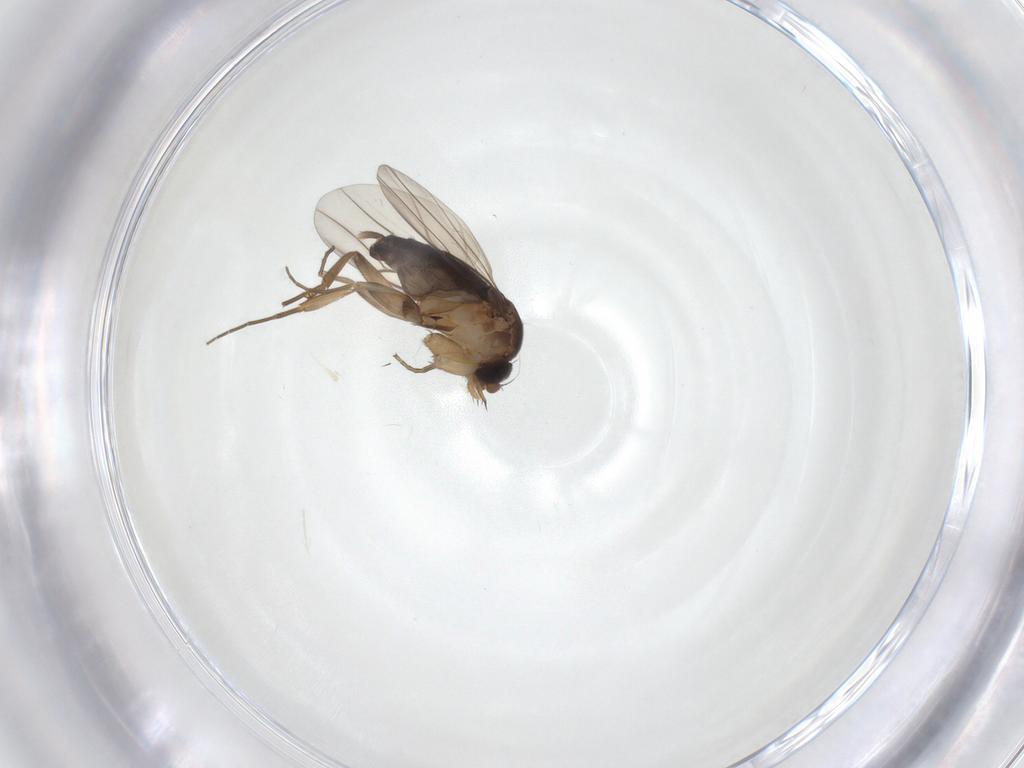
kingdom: Animalia
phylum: Arthropoda
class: Insecta
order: Diptera
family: Phoridae
